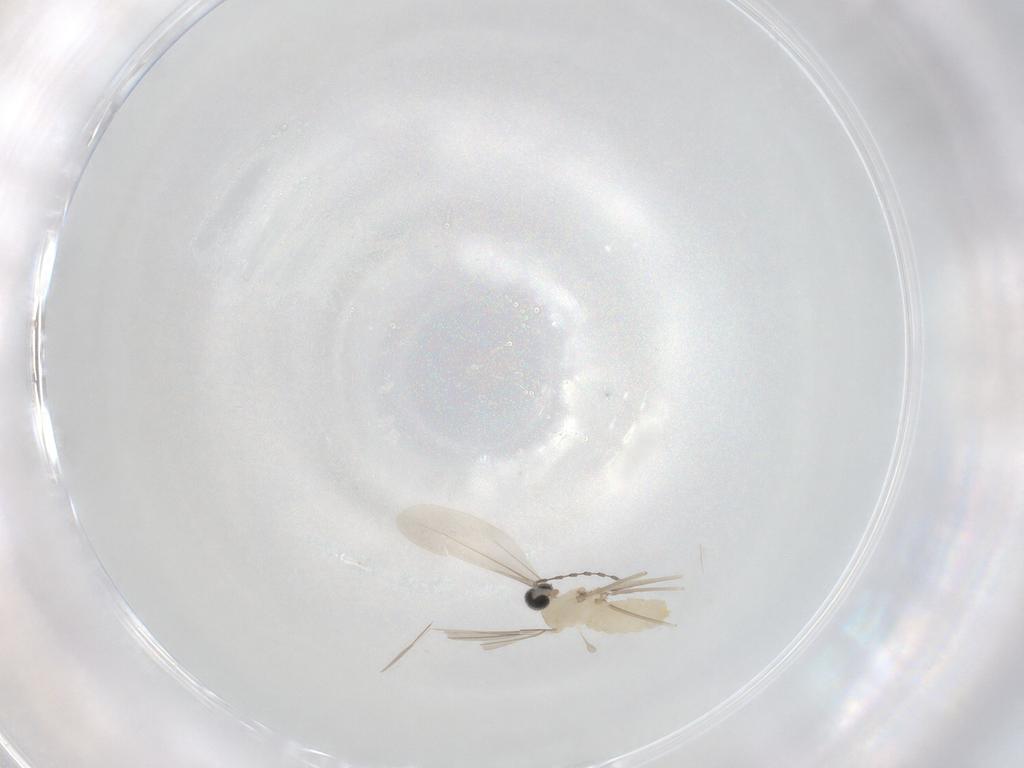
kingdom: Animalia
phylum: Arthropoda
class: Insecta
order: Diptera
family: Cecidomyiidae
